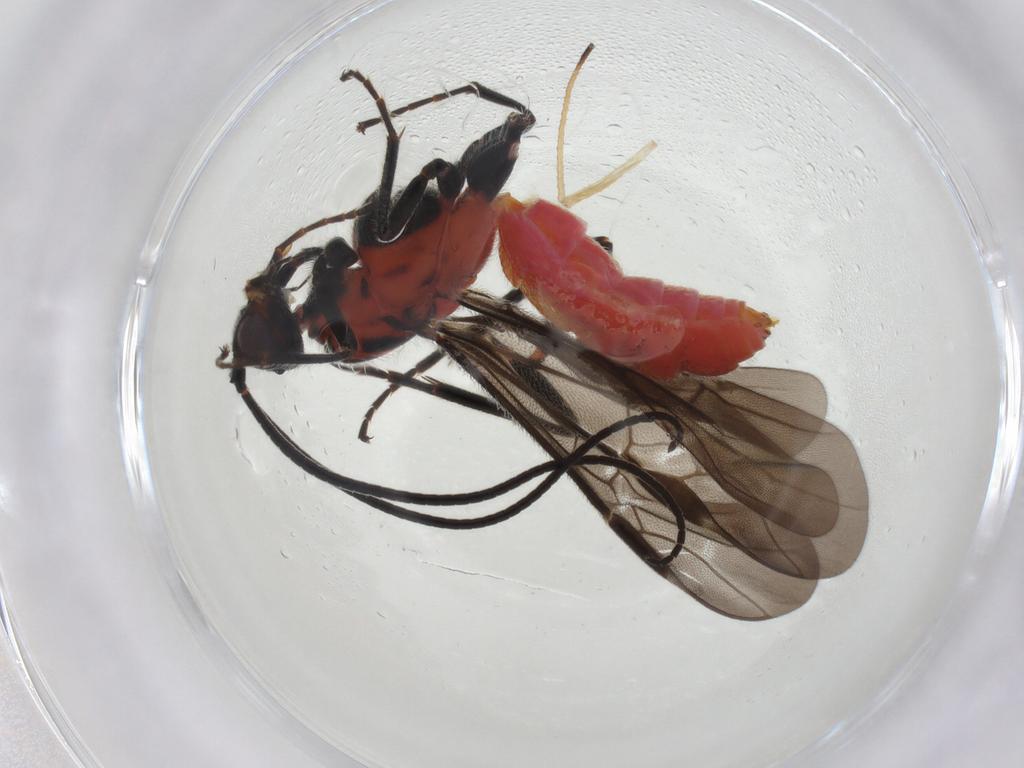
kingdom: Animalia
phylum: Arthropoda
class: Insecta
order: Hymenoptera
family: Braconidae
